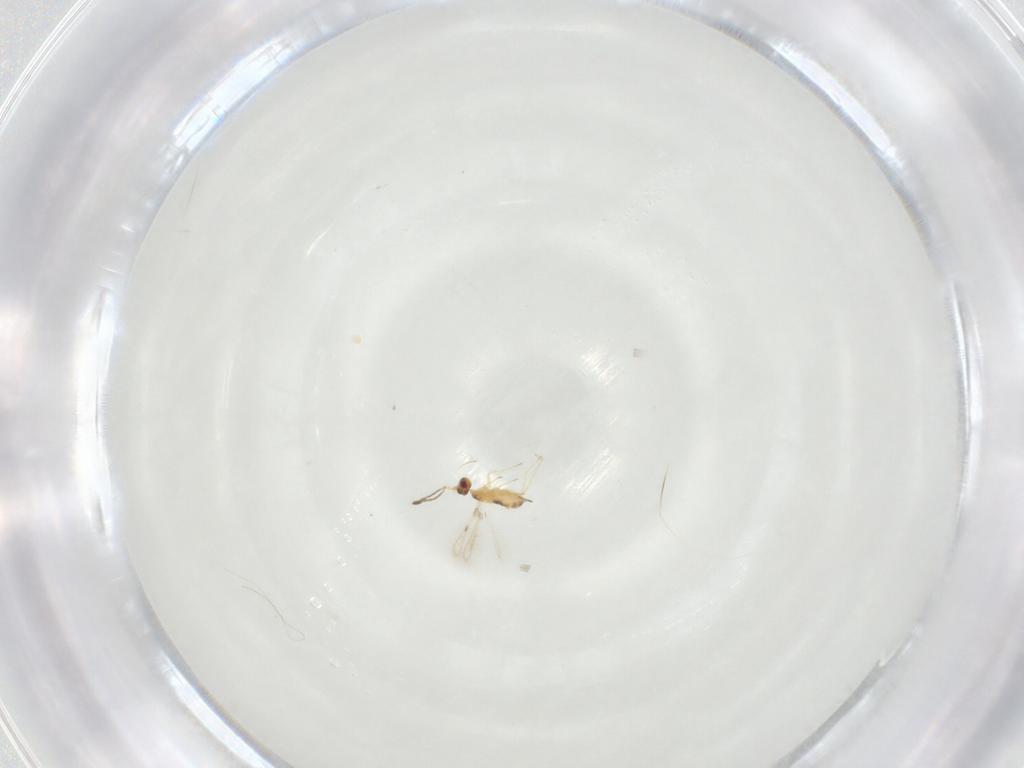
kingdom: Animalia
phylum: Arthropoda
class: Insecta
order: Hymenoptera
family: Mymaridae
